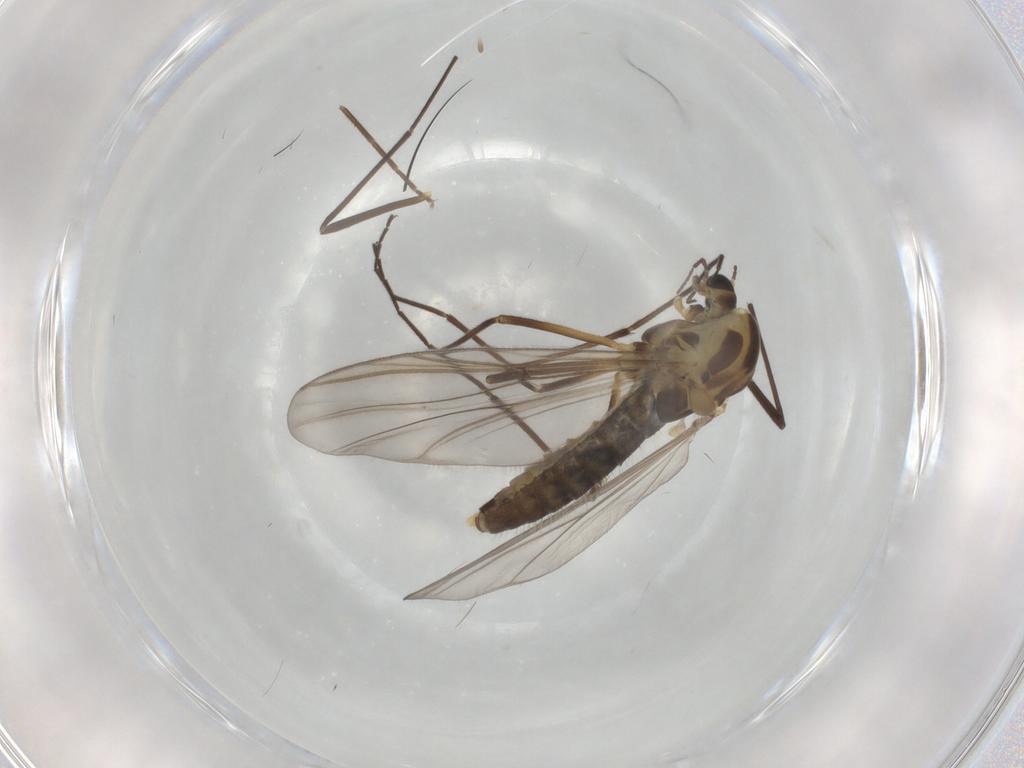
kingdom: Animalia
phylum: Arthropoda
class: Insecta
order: Diptera
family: Chironomidae
